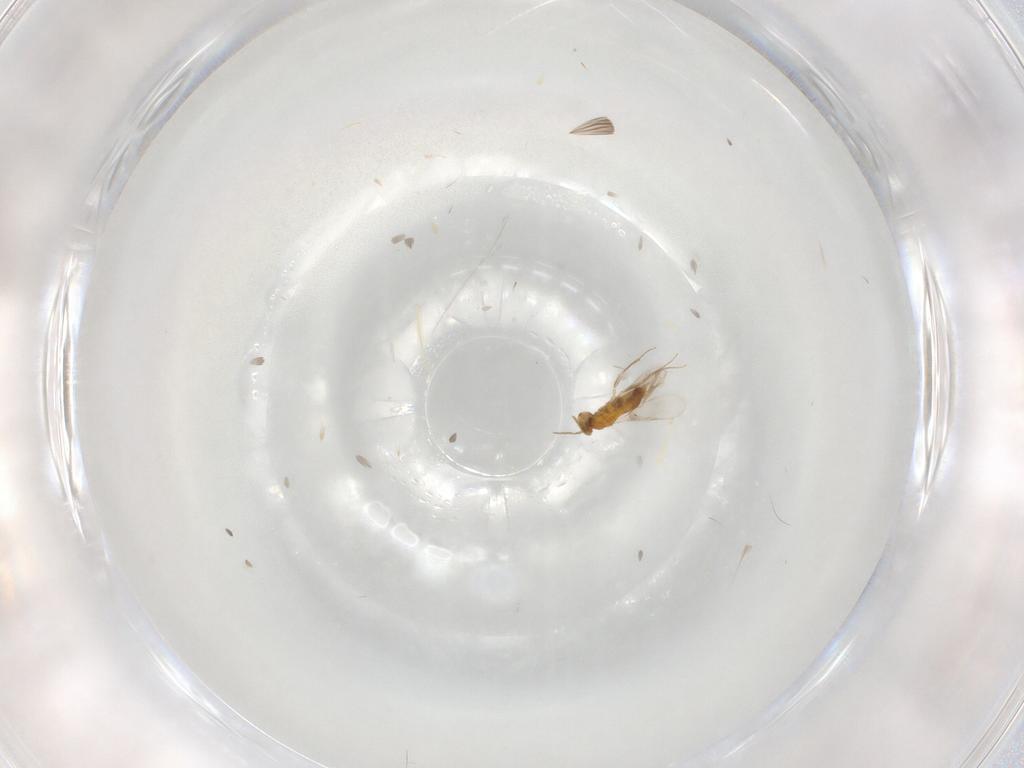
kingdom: Animalia
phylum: Arthropoda
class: Insecta
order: Hymenoptera
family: Aphelinidae
